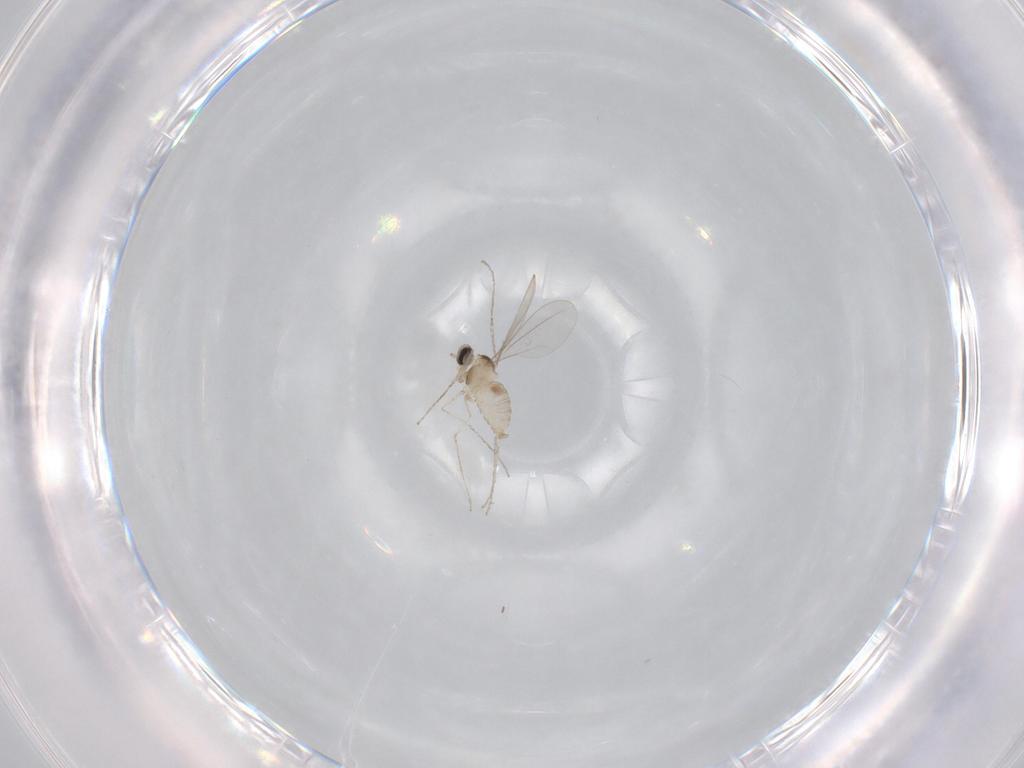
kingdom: Animalia
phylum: Arthropoda
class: Insecta
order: Diptera
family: Cecidomyiidae
